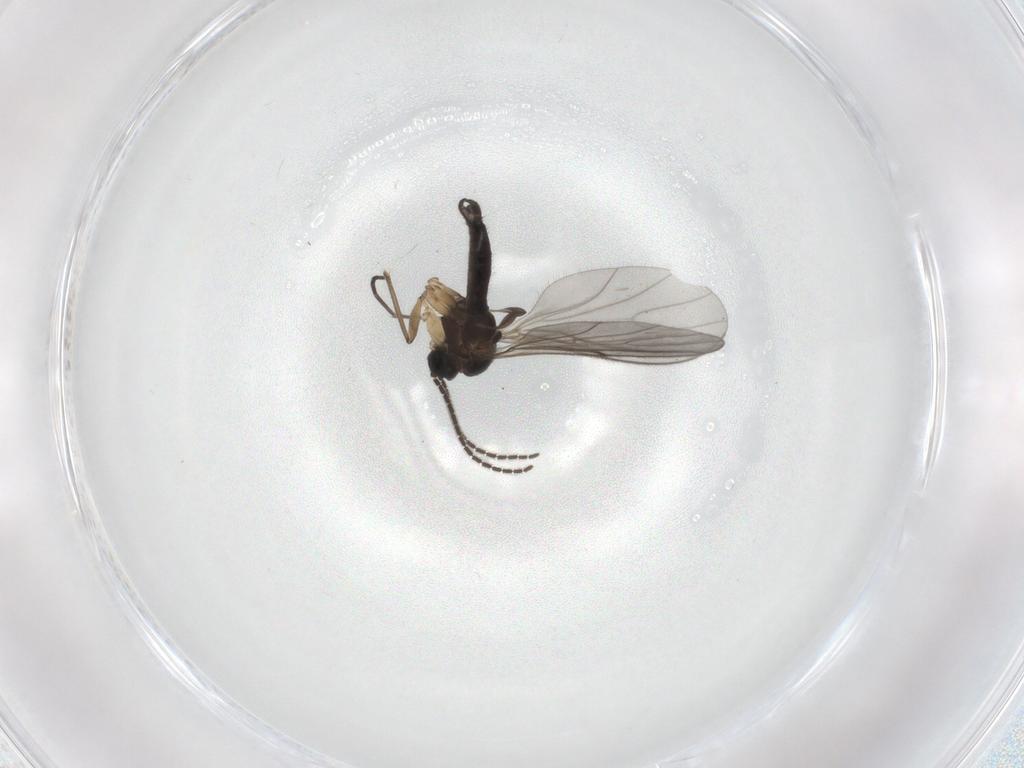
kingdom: Animalia
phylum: Arthropoda
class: Insecta
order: Diptera
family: Sciaridae
